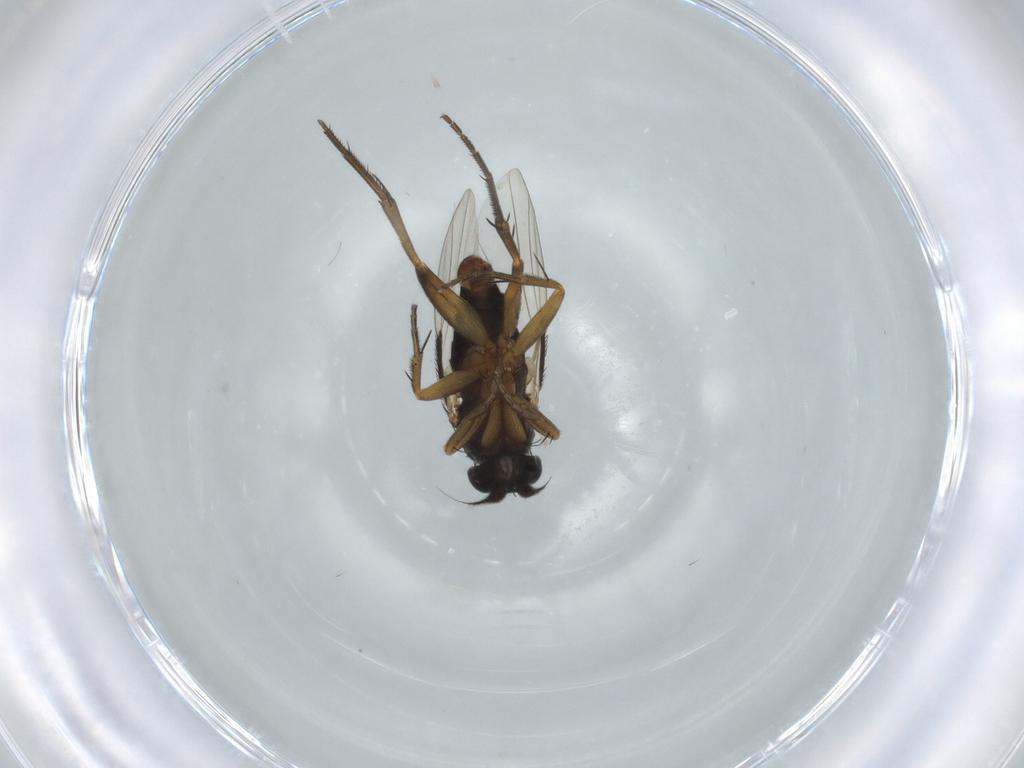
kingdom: Animalia
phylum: Arthropoda
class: Insecta
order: Diptera
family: Phoridae
